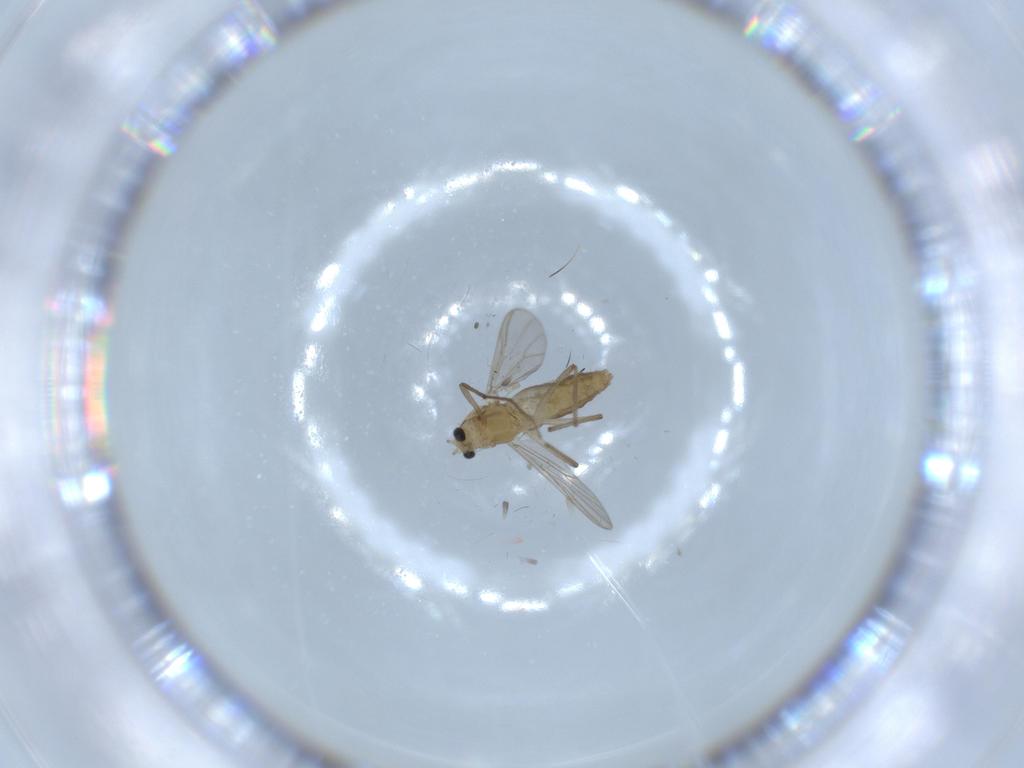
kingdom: Animalia
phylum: Arthropoda
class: Insecta
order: Diptera
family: Chironomidae
